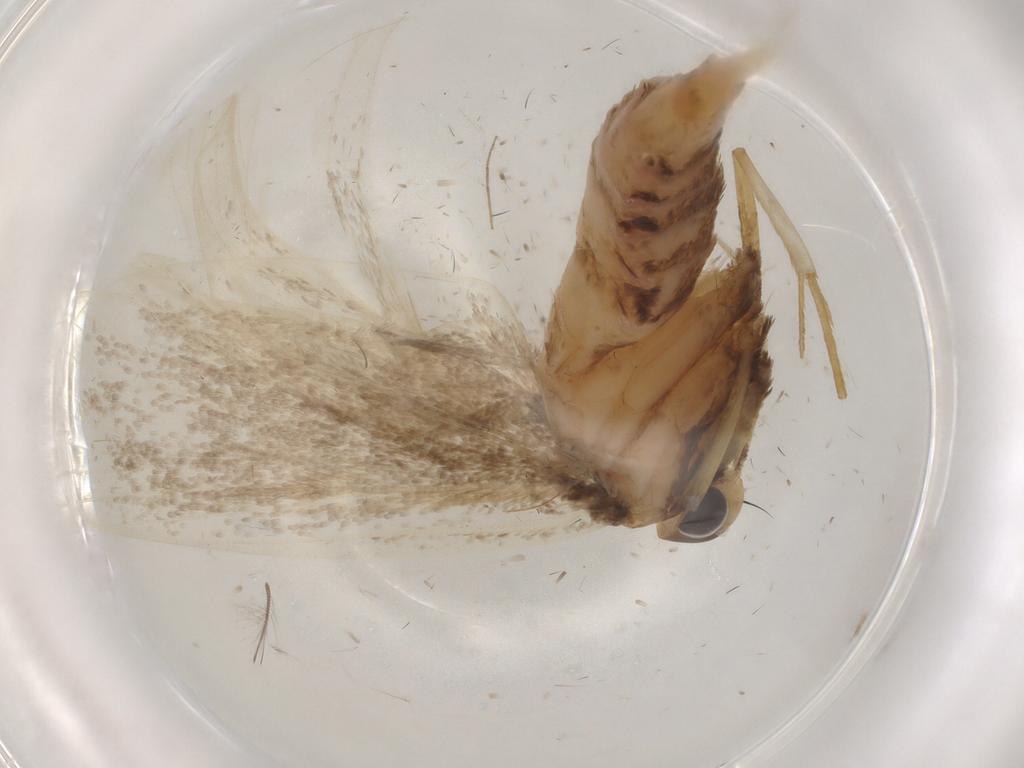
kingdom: Animalia
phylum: Arthropoda
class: Insecta
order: Lepidoptera
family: Lecithoceridae
